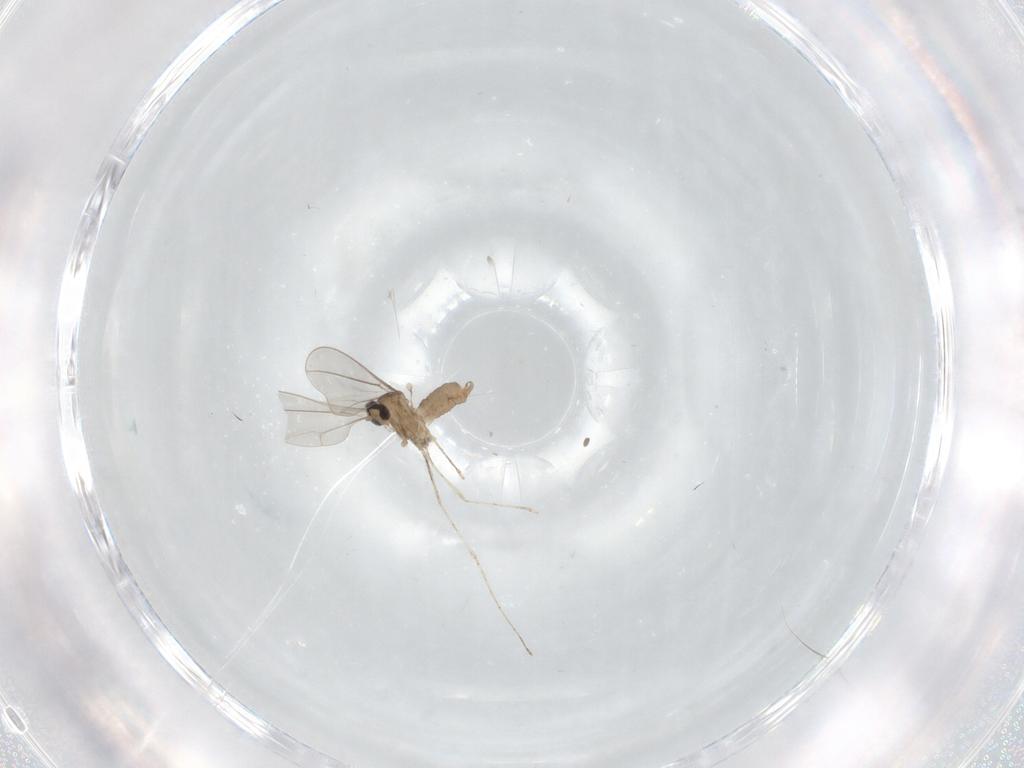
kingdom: Animalia
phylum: Arthropoda
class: Insecta
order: Diptera
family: Cecidomyiidae
